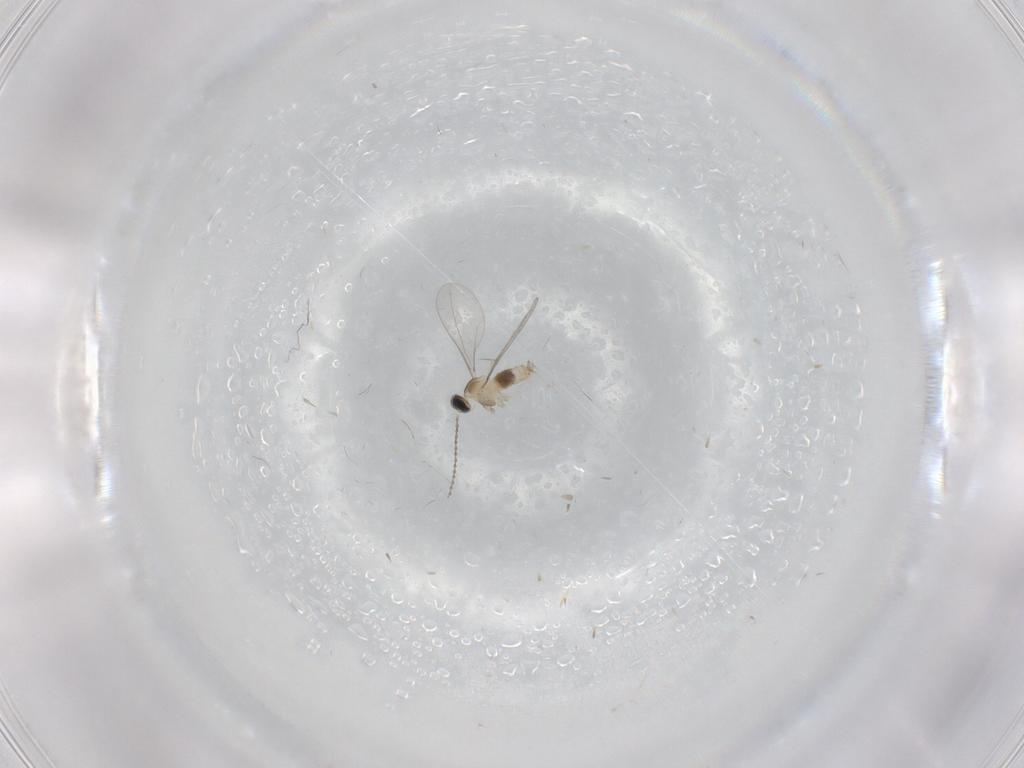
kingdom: Animalia
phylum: Arthropoda
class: Insecta
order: Diptera
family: Cecidomyiidae
